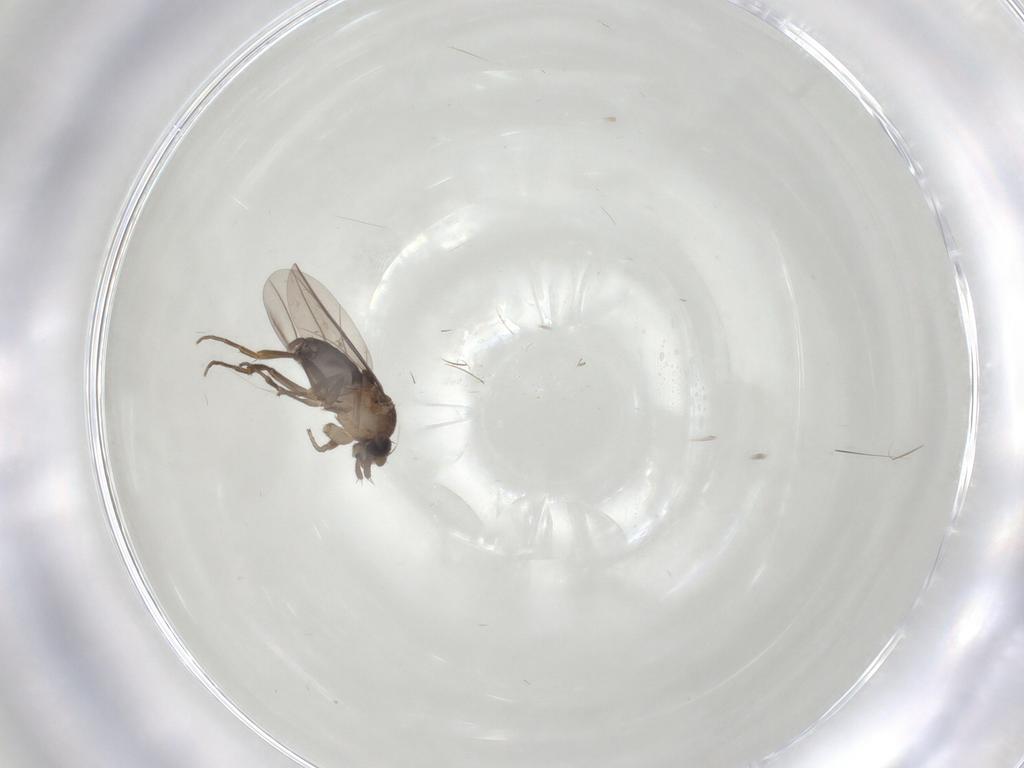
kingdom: Animalia
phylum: Arthropoda
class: Insecta
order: Diptera
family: Phoridae
